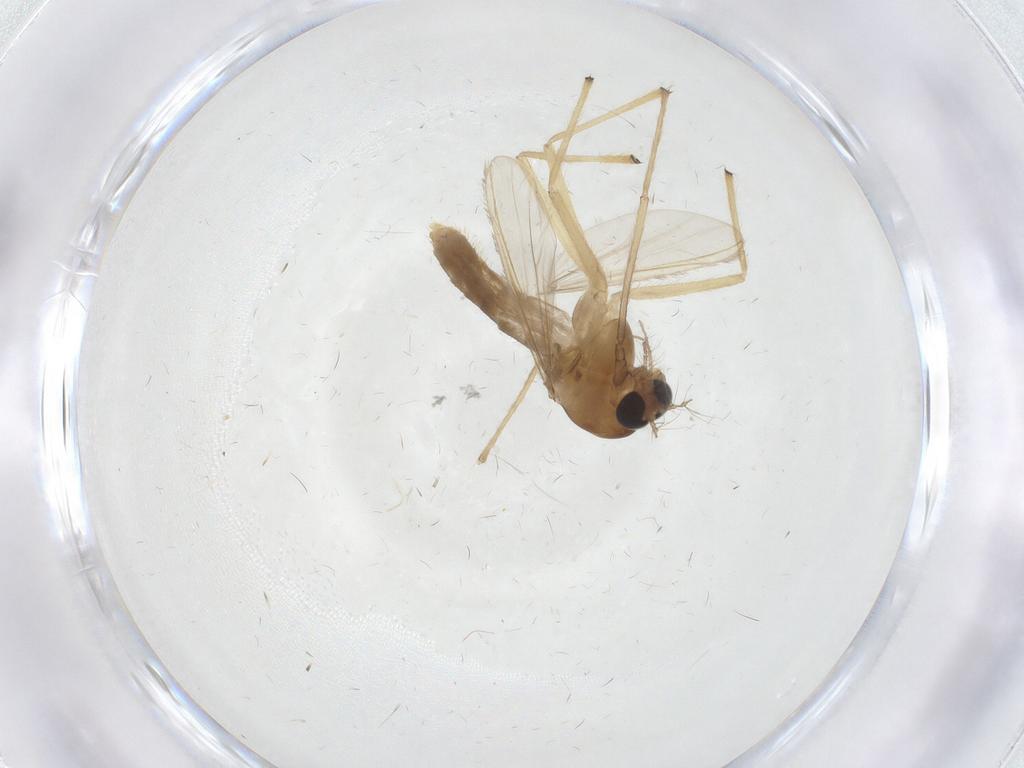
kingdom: Animalia
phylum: Arthropoda
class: Insecta
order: Diptera
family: Chironomidae
